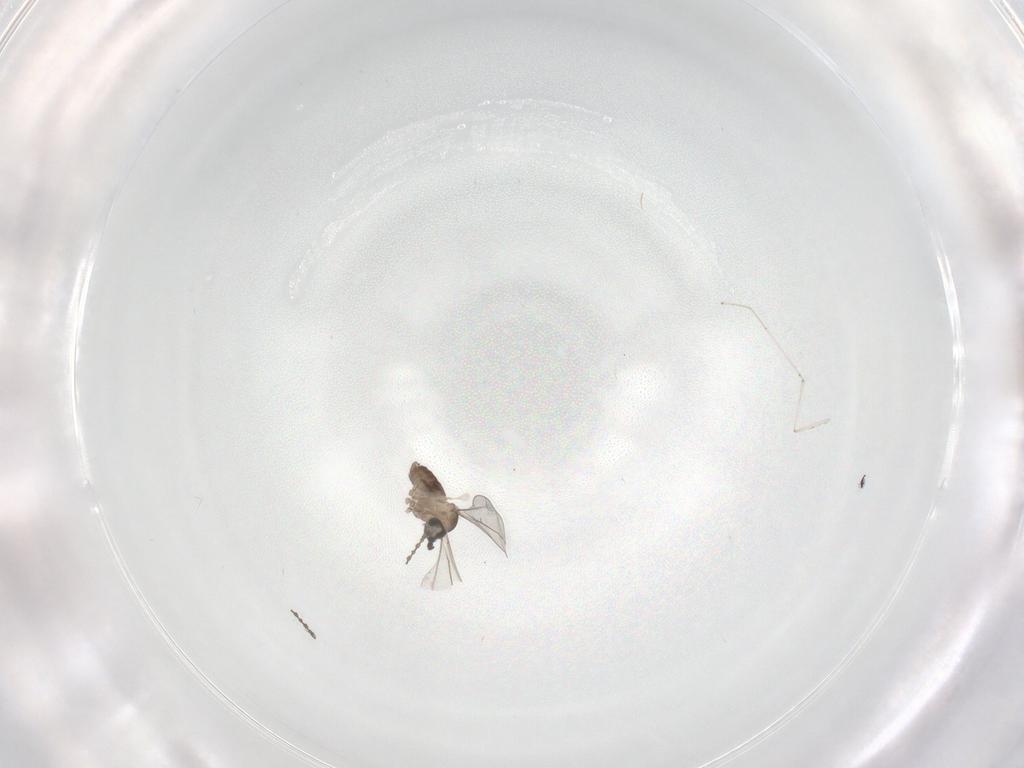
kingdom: Animalia
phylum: Arthropoda
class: Insecta
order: Diptera
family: Cecidomyiidae
